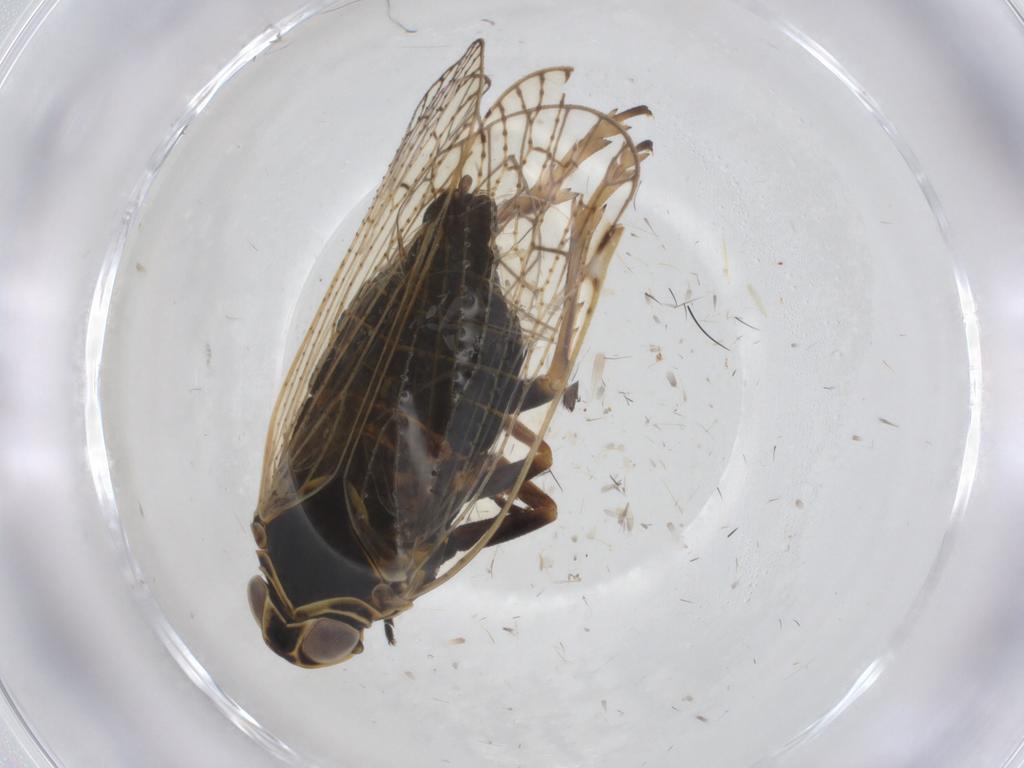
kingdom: Animalia
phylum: Arthropoda
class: Insecta
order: Hemiptera
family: Cixiidae
